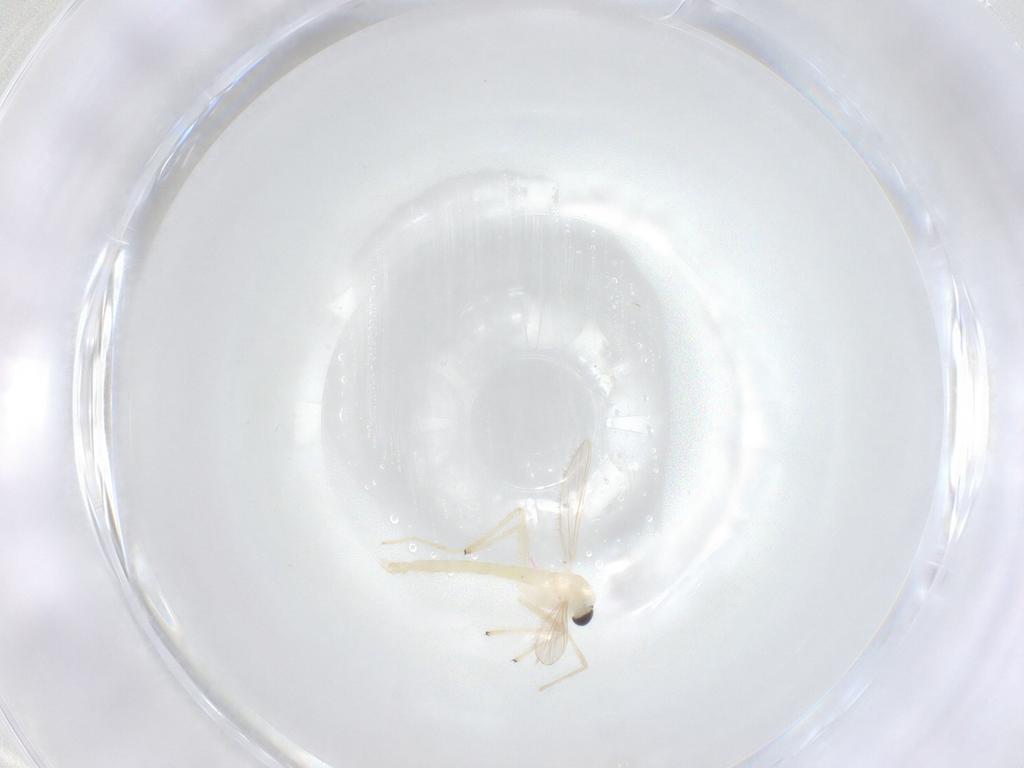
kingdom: Animalia
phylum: Arthropoda
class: Insecta
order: Diptera
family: Chironomidae
